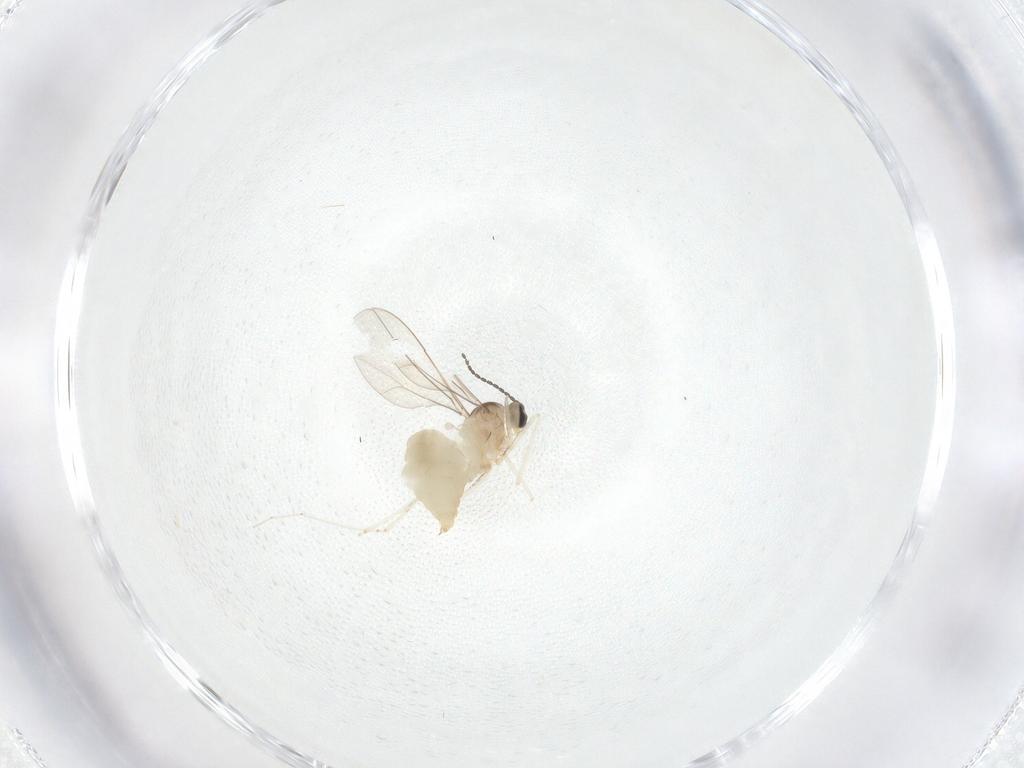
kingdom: Animalia
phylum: Arthropoda
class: Insecta
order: Diptera
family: Cecidomyiidae
